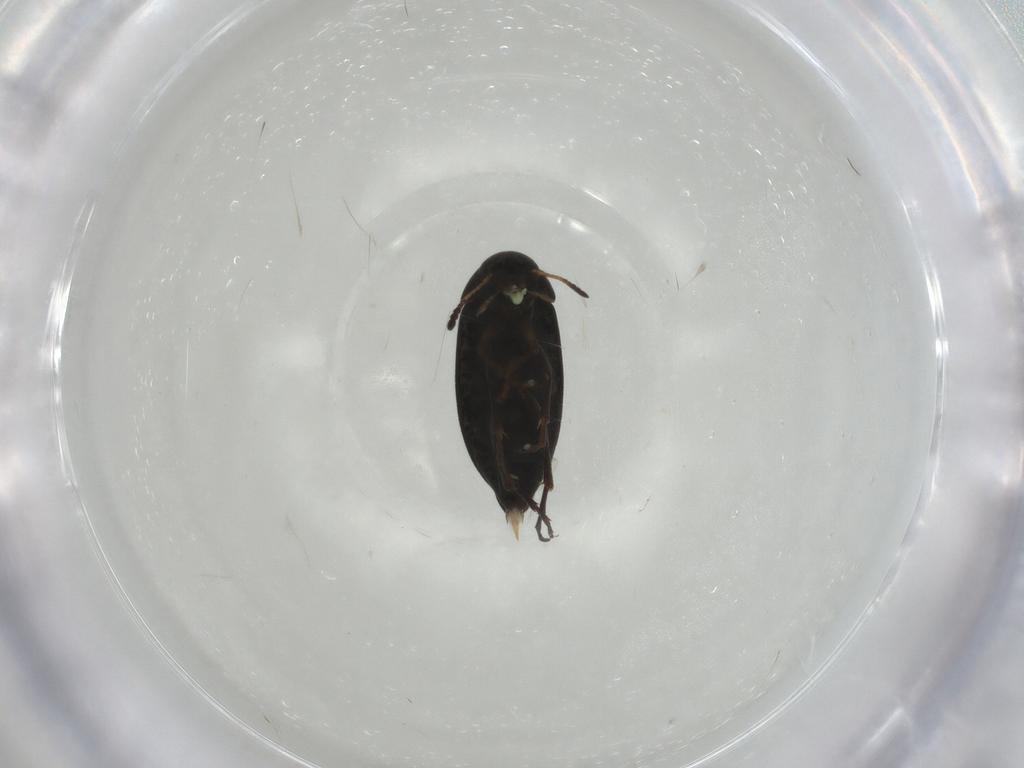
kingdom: Animalia
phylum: Arthropoda
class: Insecta
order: Coleoptera
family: Scraptiidae
